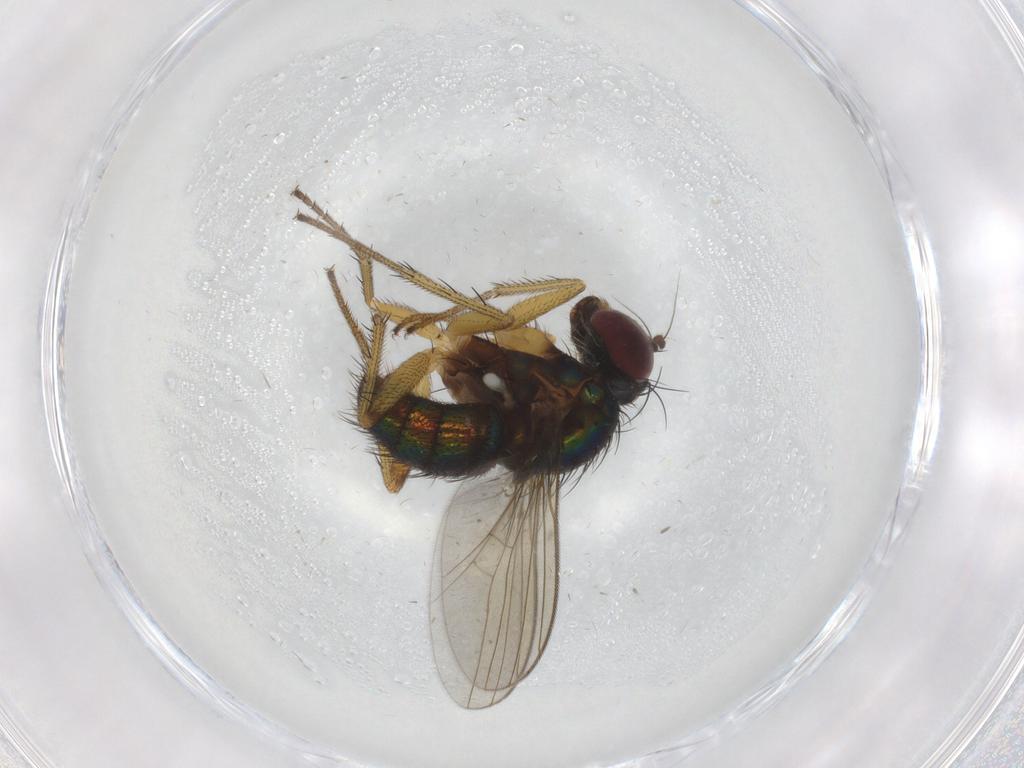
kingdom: Animalia
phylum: Arthropoda
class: Insecta
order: Diptera
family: Dolichopodidae
